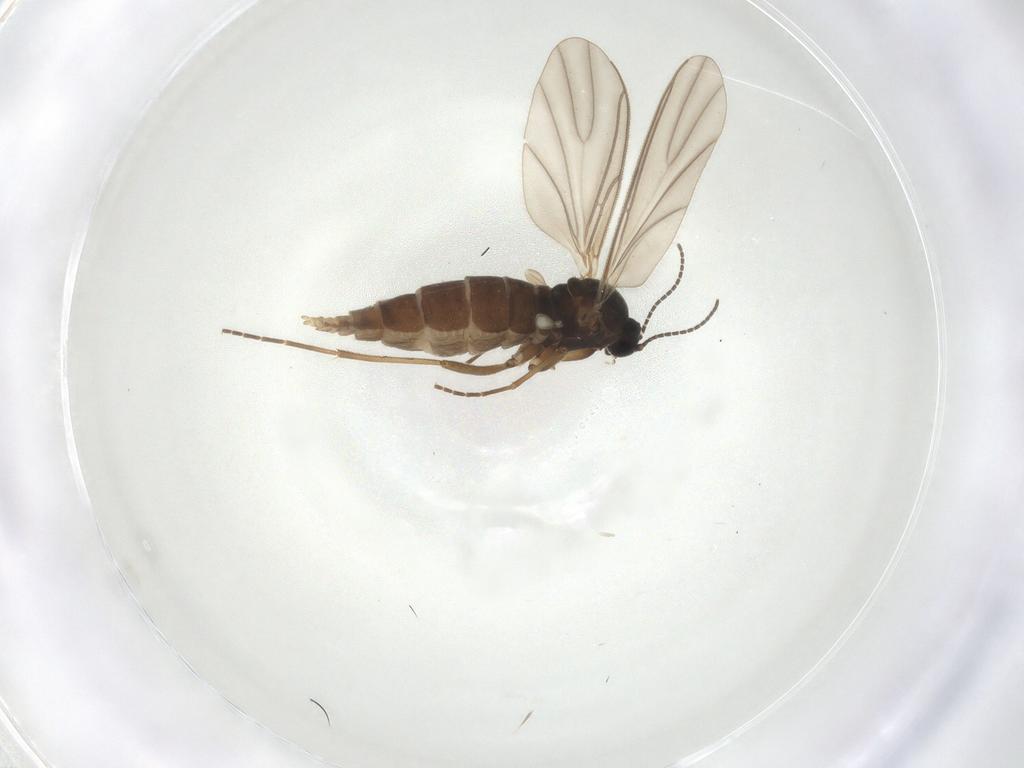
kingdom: Animalia
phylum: Arthropoda
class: Insecta
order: Diptera
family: Sciaridae
